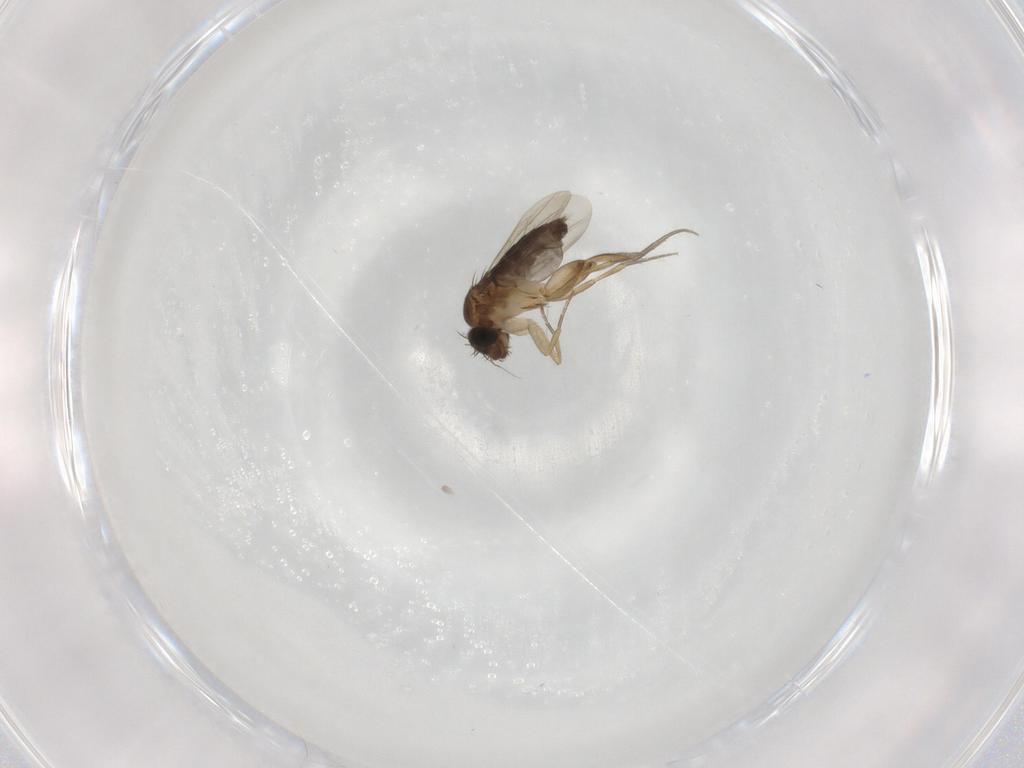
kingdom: Animalia
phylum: Arthropoda
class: Insecta
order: Diptera
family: Phoridae
